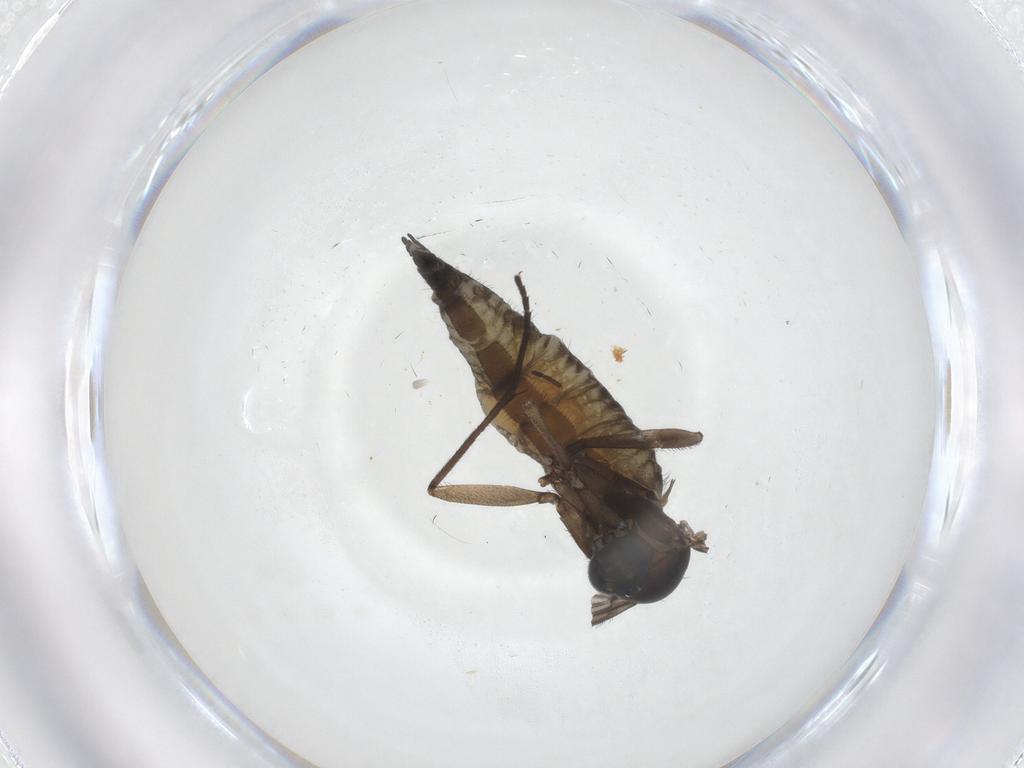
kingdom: Animalia
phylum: Arthropoda
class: Insecta
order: Diptera
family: Sciaridae
